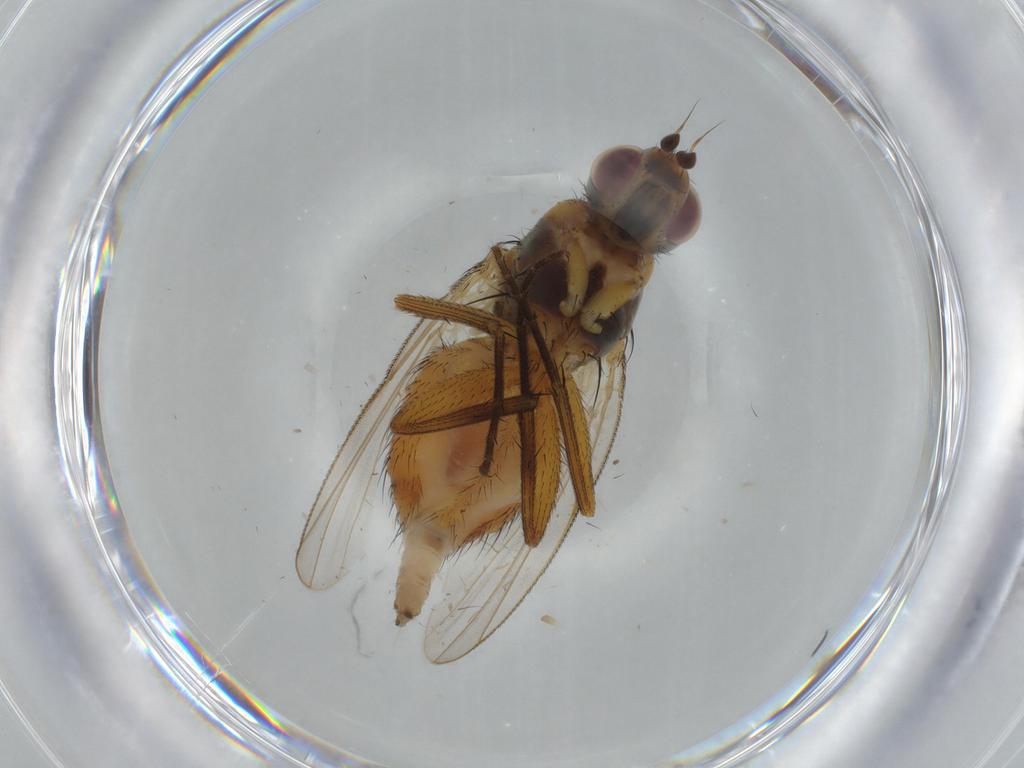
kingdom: Animalia
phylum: Arthropoda
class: Insecta
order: Diptera
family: Muscidae
